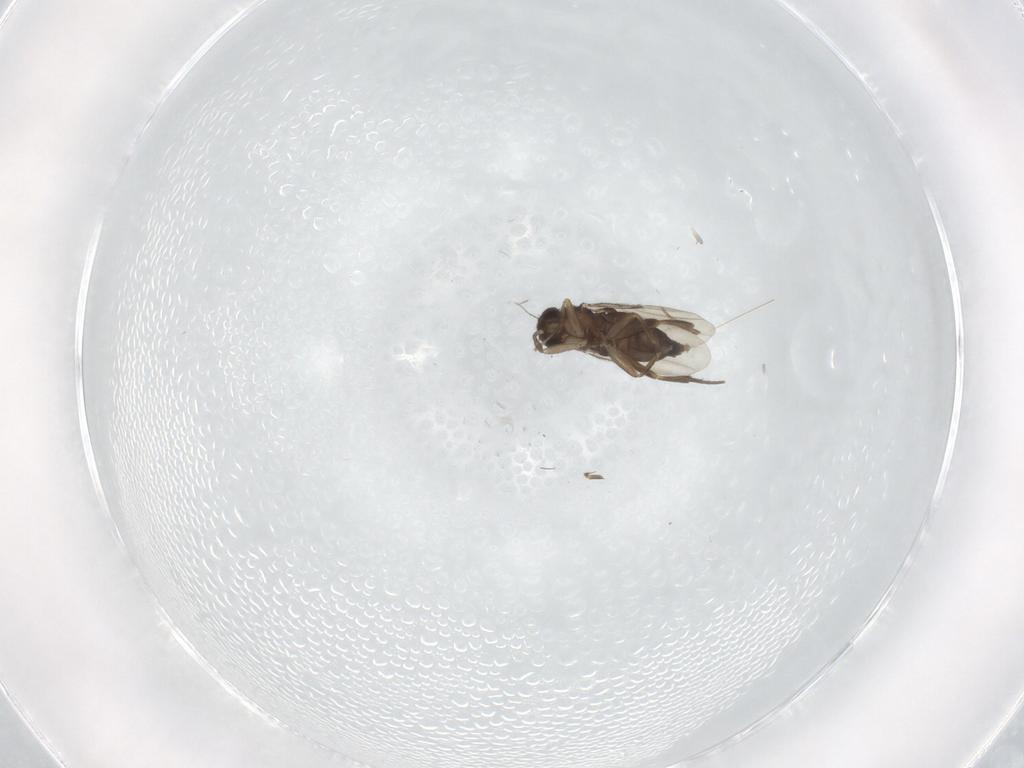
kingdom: Animalia
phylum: Arthropoda
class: Insecta
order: Diptera
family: Phoridae
